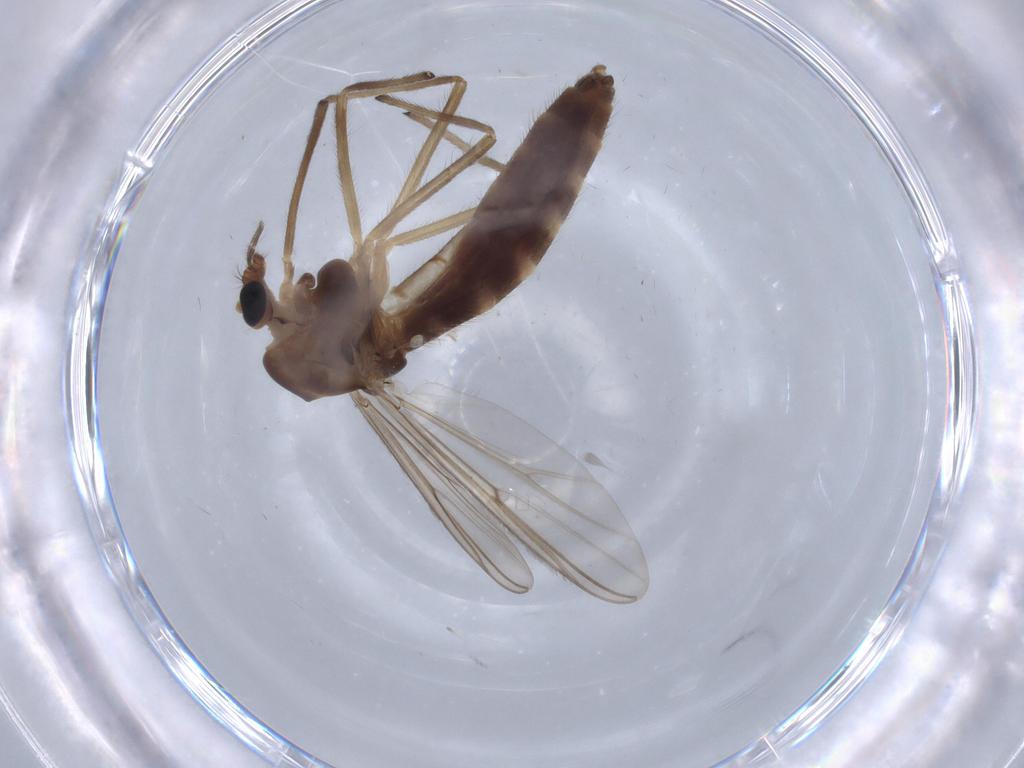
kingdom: Animalia
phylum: Arthropoda
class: Insecta
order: Diptera
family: Chironomidae
